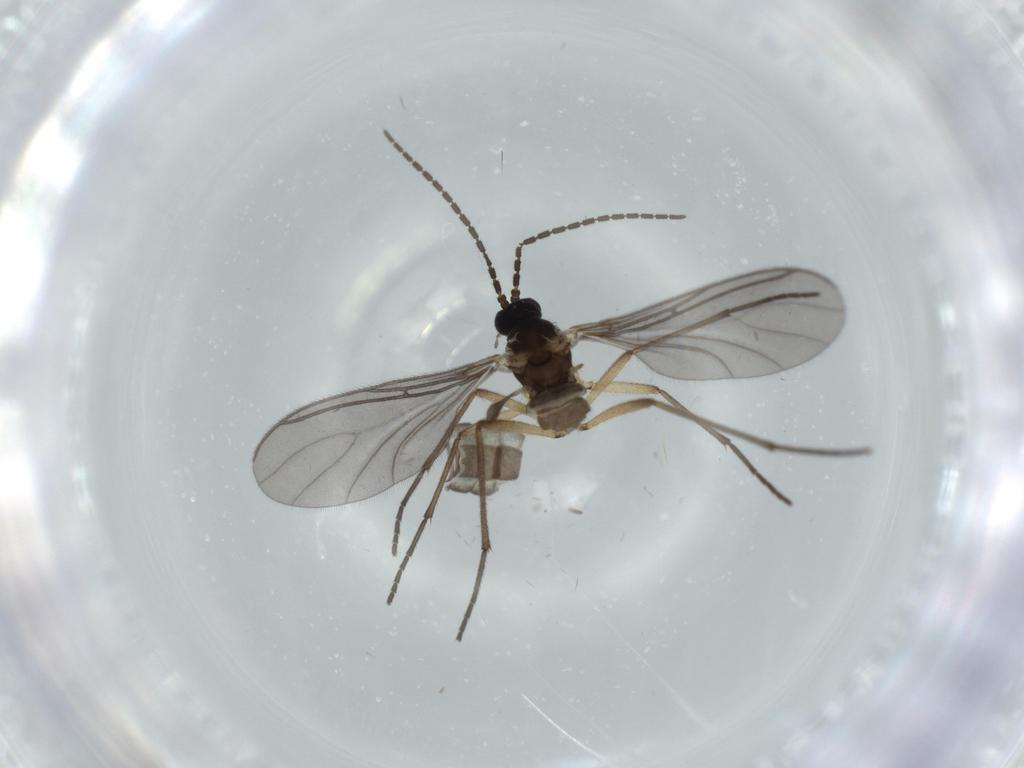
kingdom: Animalia
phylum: Arthropoda
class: Insecta
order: Diptera
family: Sciaridae
